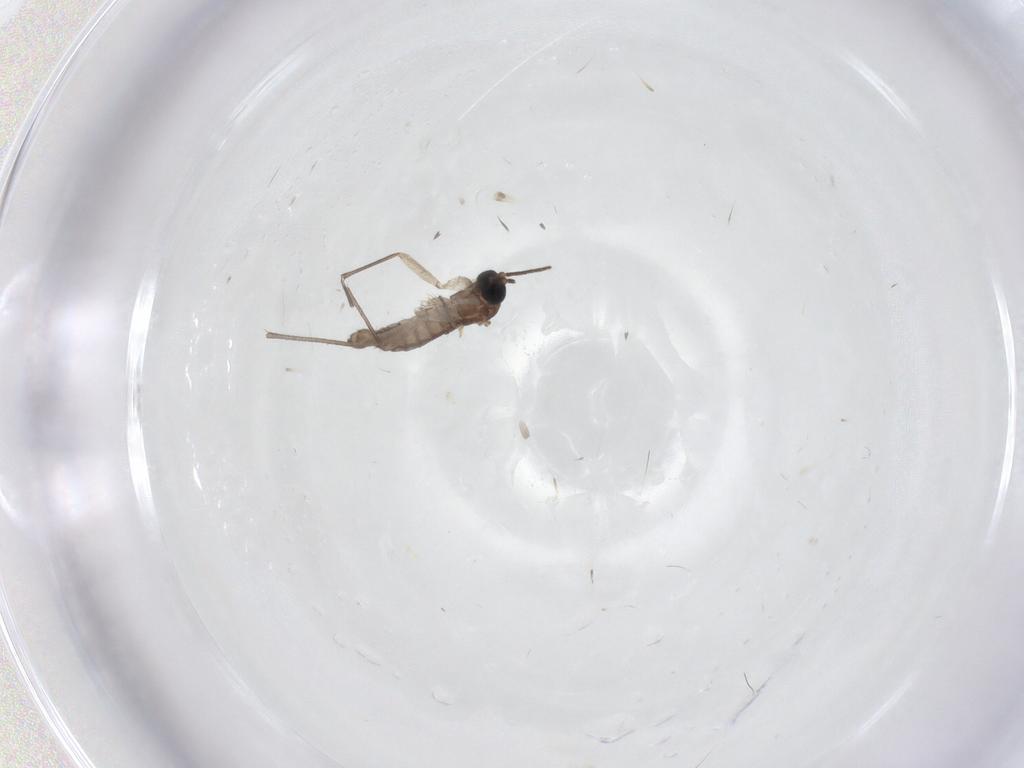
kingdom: Animalia
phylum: Arthropoda
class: Insecta
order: Diptera
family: Sciaridae
